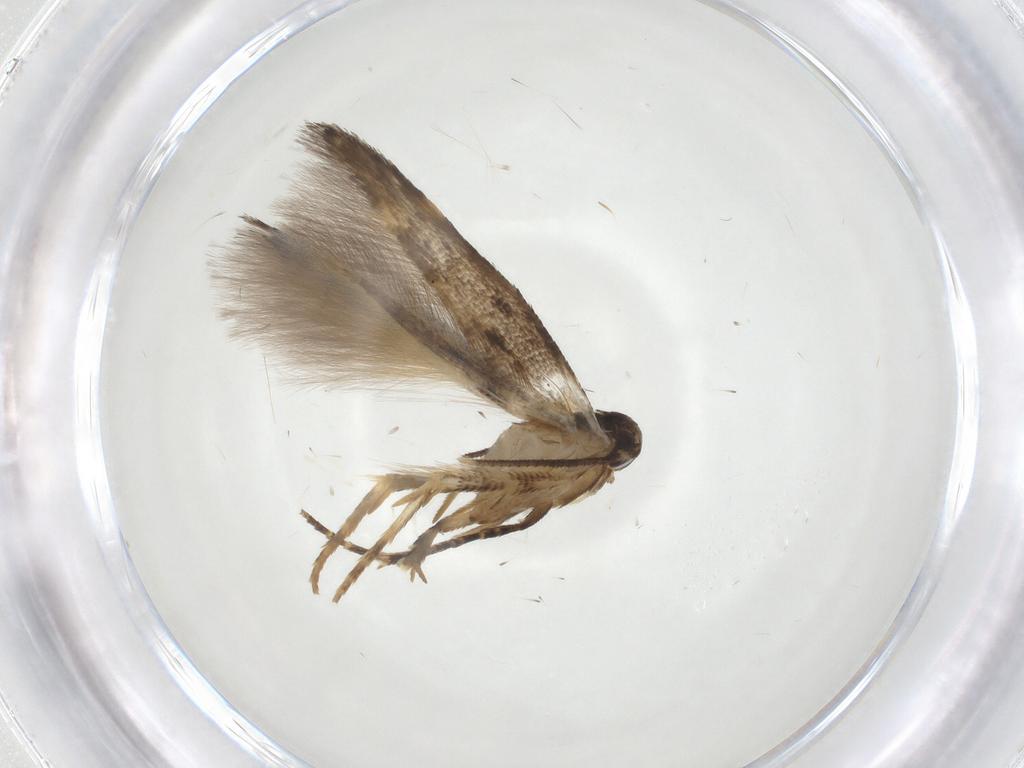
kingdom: Animalia
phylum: Arthropoda
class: Insecta
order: Lepidoptera
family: Gelechiidae
